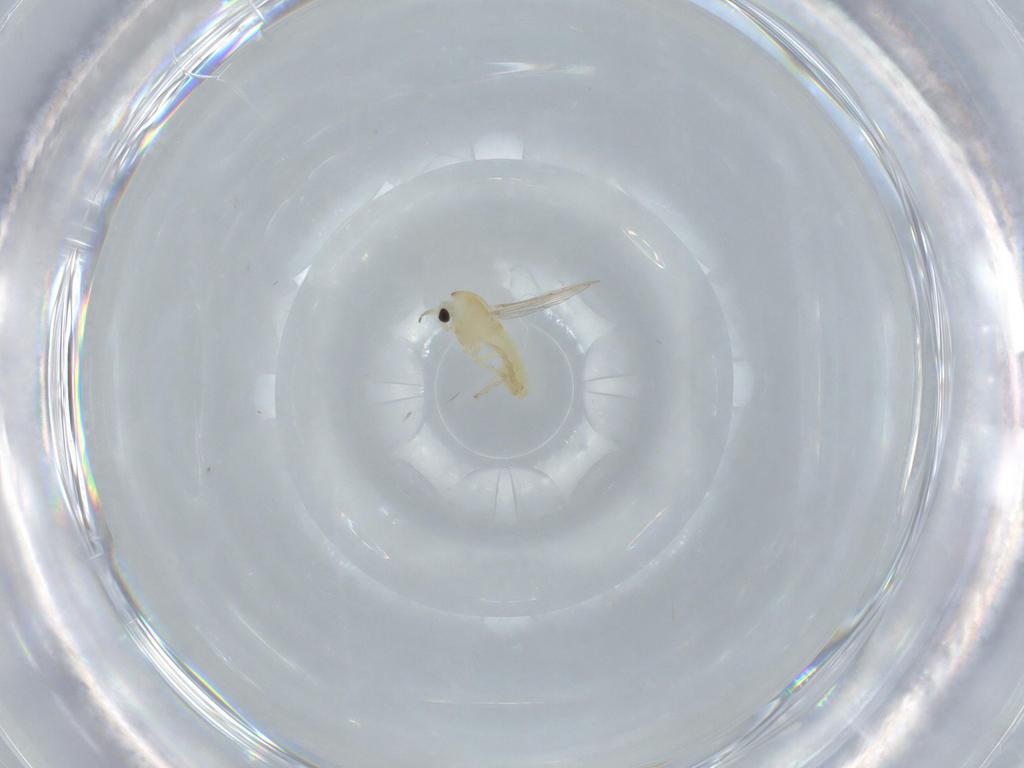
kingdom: Animalia
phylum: Arthropoda
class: Insecta
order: Diptera
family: Chironomidae
